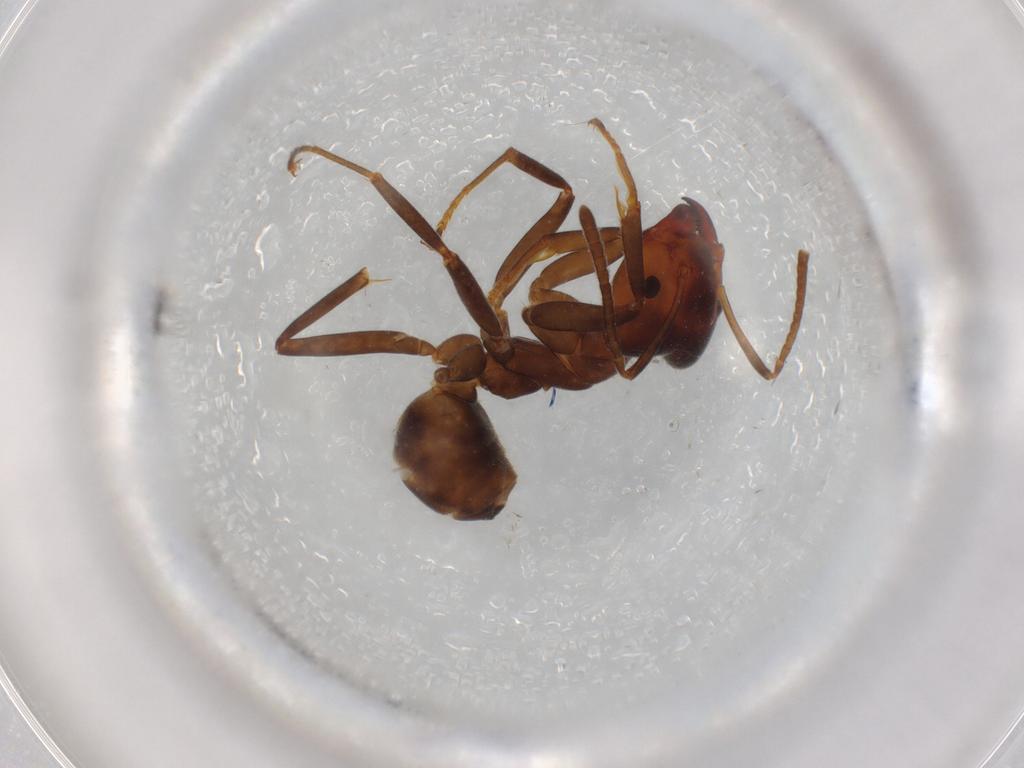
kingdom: Animalia
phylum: Arthropoda
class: Insecta
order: Hymenoptera
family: Formicidae
